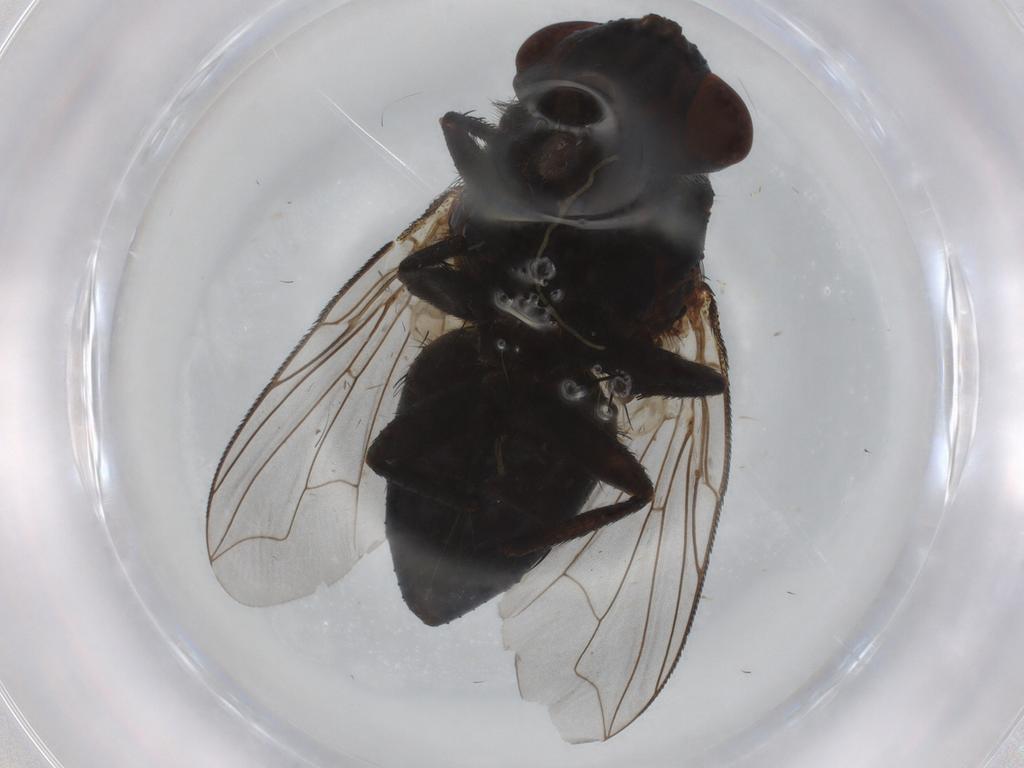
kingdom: Animalia
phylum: Arthropoda
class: Insecta
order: Diptera
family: Tachinidae
